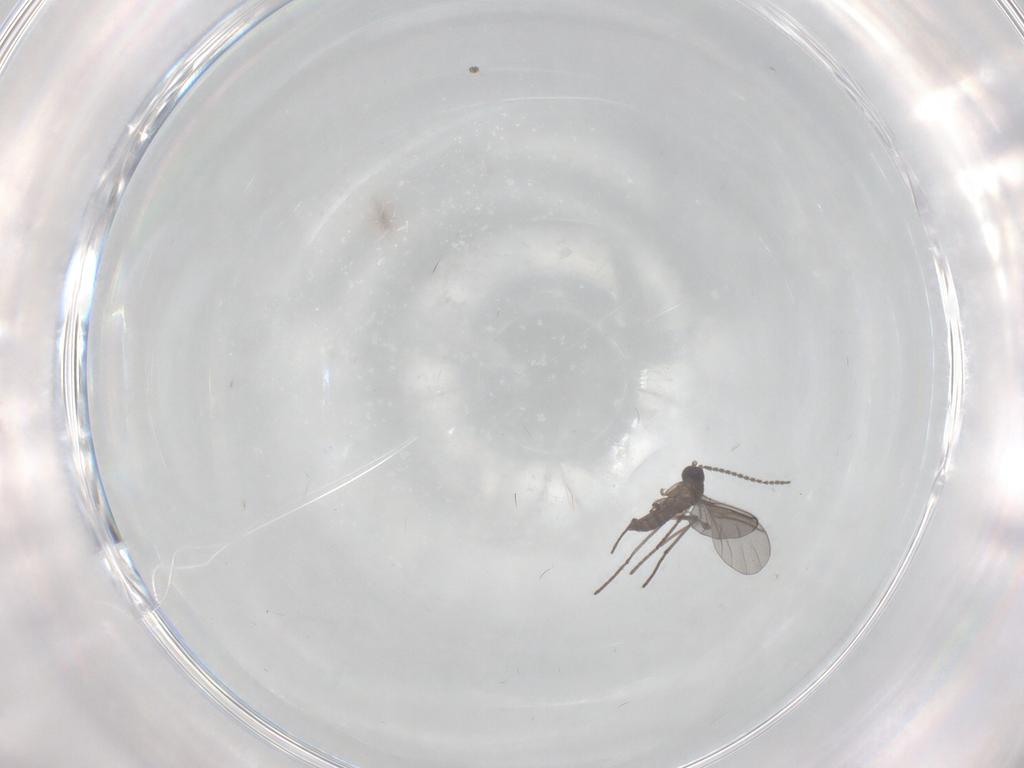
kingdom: Animalia
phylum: Arthropoda
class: Insecta
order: Diptera
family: Sciaridae
